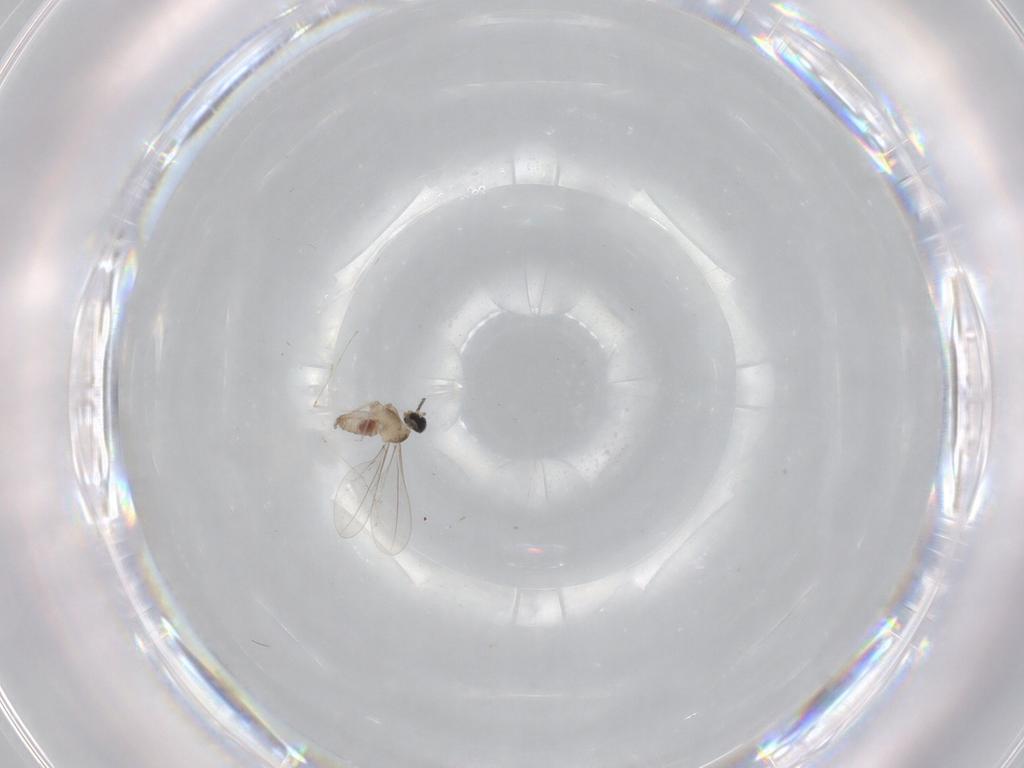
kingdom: Animalia
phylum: Arthropoda
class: Insecta
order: Diptera
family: Cecidomyiidae
